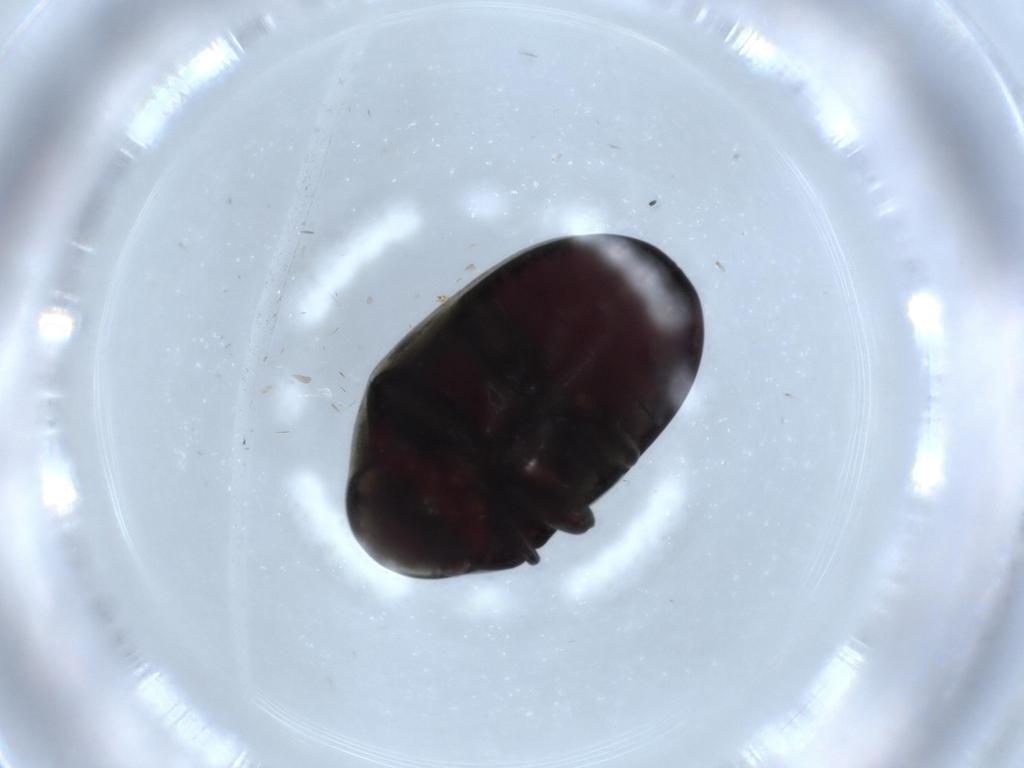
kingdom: Animalia
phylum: Arthropoda
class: Insecta
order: Coleoptera
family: Ptinidae
